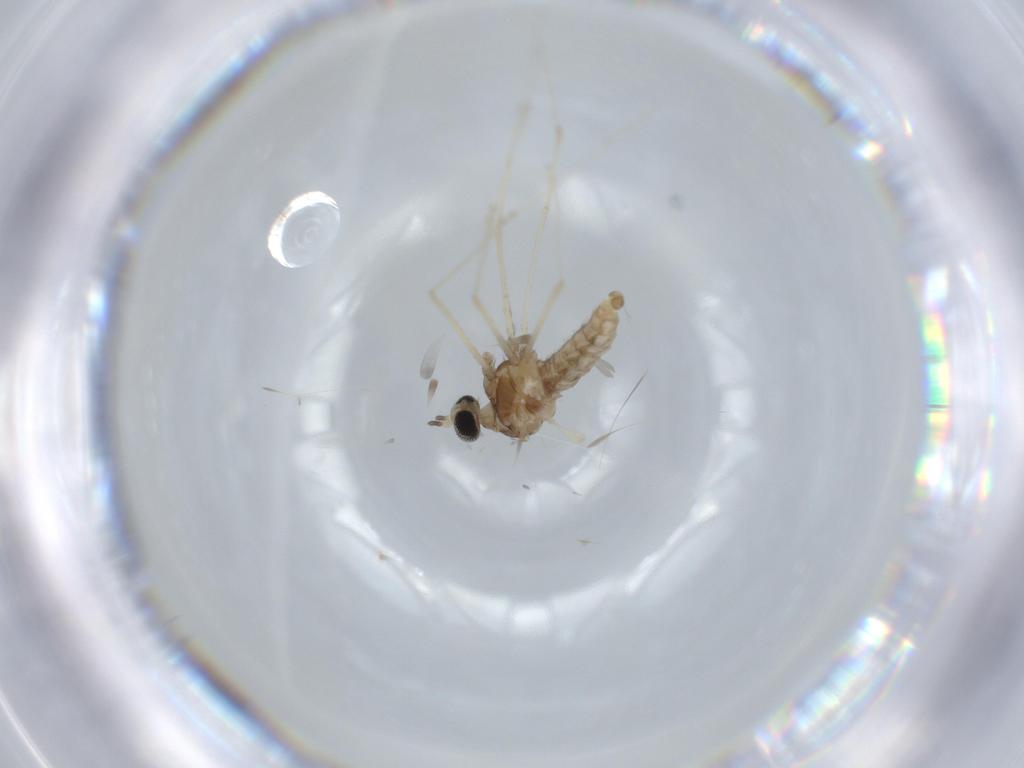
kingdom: Animalia
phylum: Arthropoda
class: Insecta
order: Diptera
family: Cecidomyiidae
